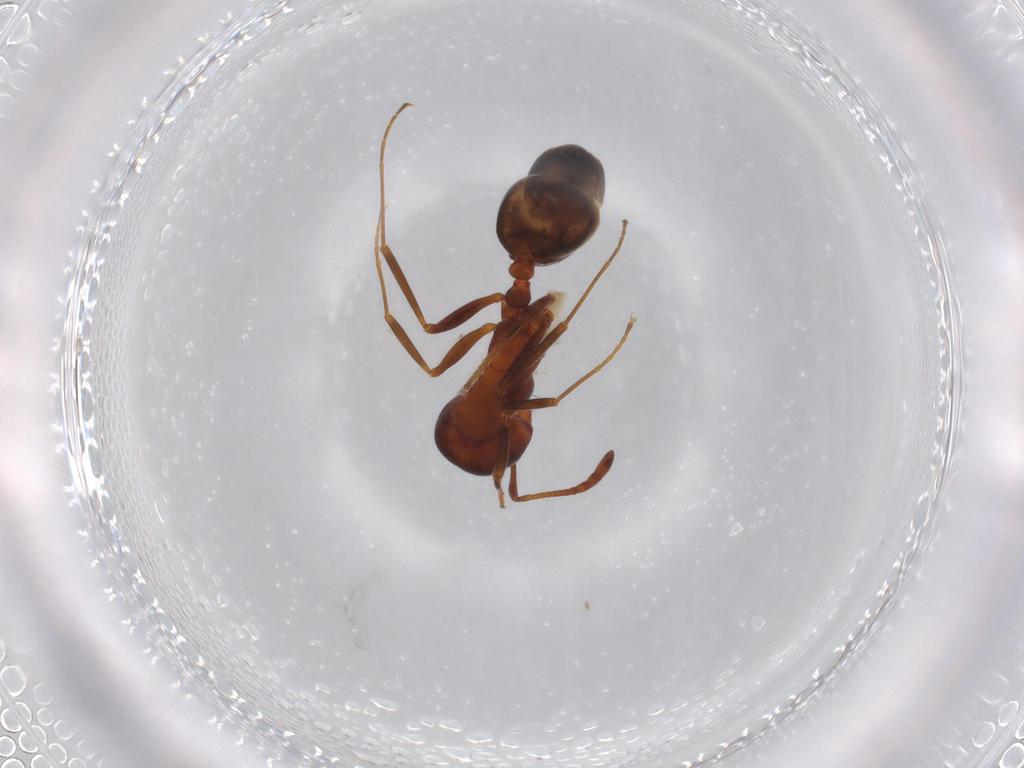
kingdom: Animalia
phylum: Arthropoda
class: Insecta
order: Hymenoptera
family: Formicidae
